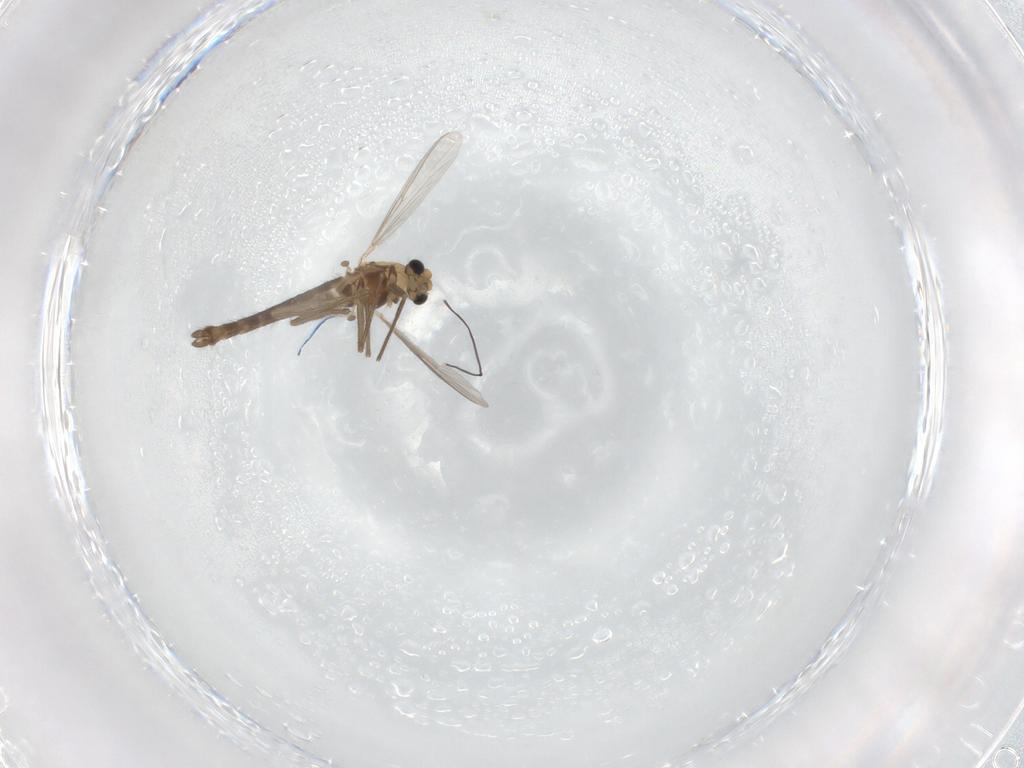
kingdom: Animalia
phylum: Arthropoda
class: Insecta
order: Diptera
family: Chironomidae
